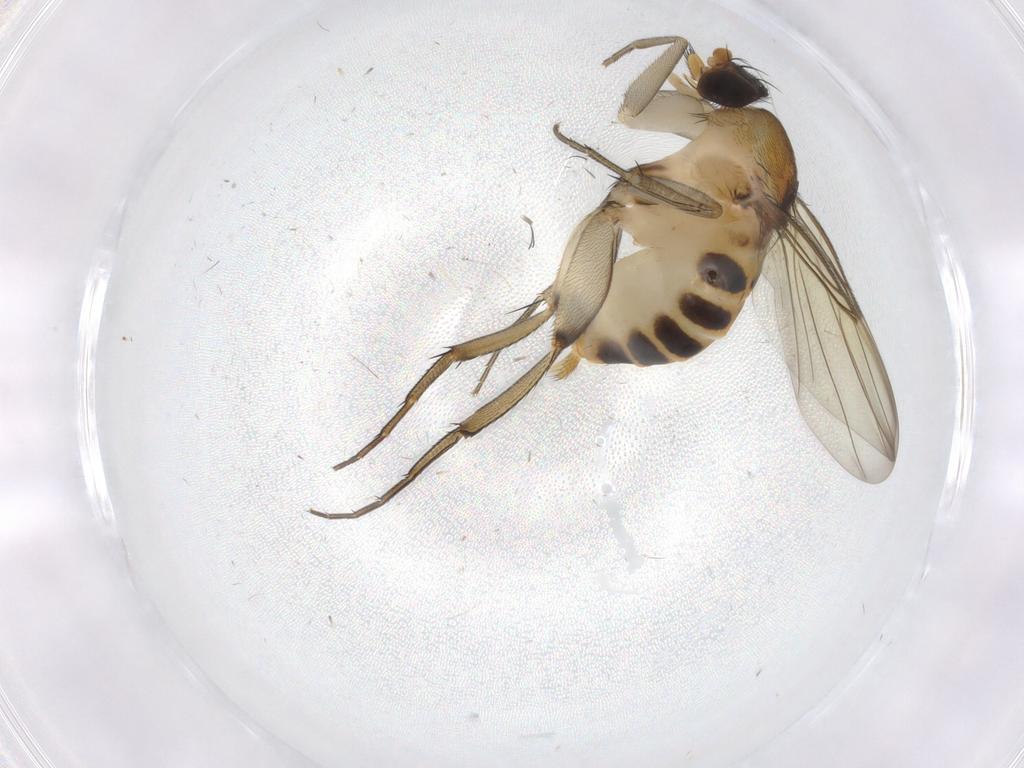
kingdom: Animalia
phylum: Arthropoda
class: Insecta
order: Diptera
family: Phoridae
